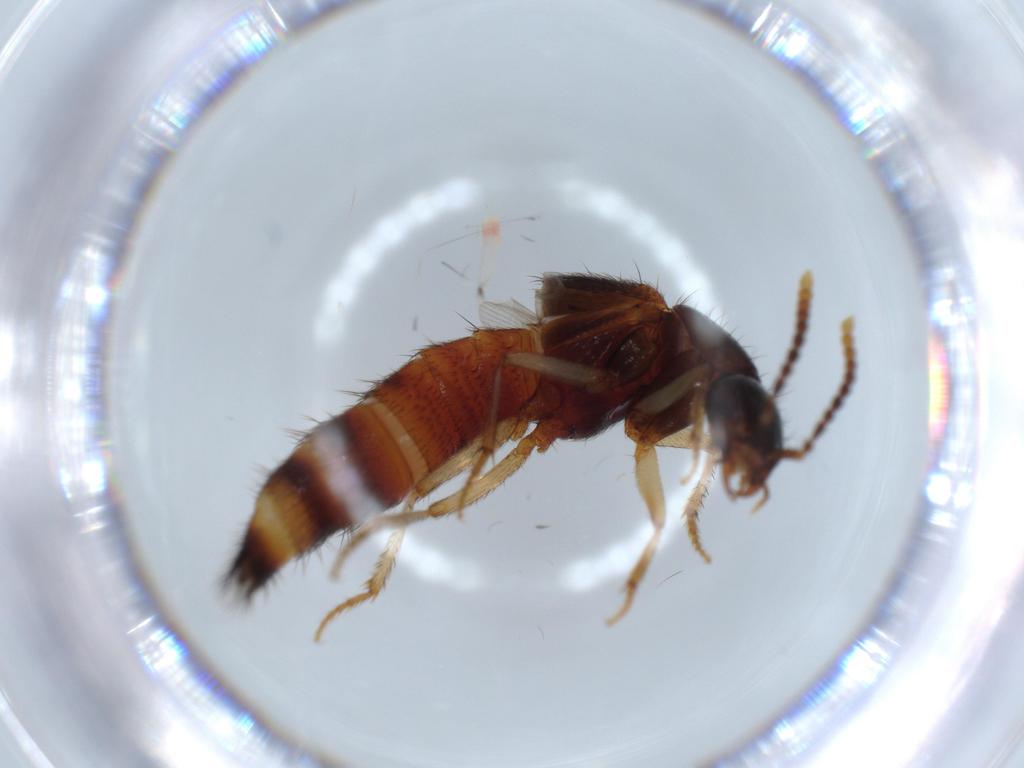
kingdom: Animalia
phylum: Arthropoda
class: Insecta
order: Coleoptera
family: Staphylinidae
